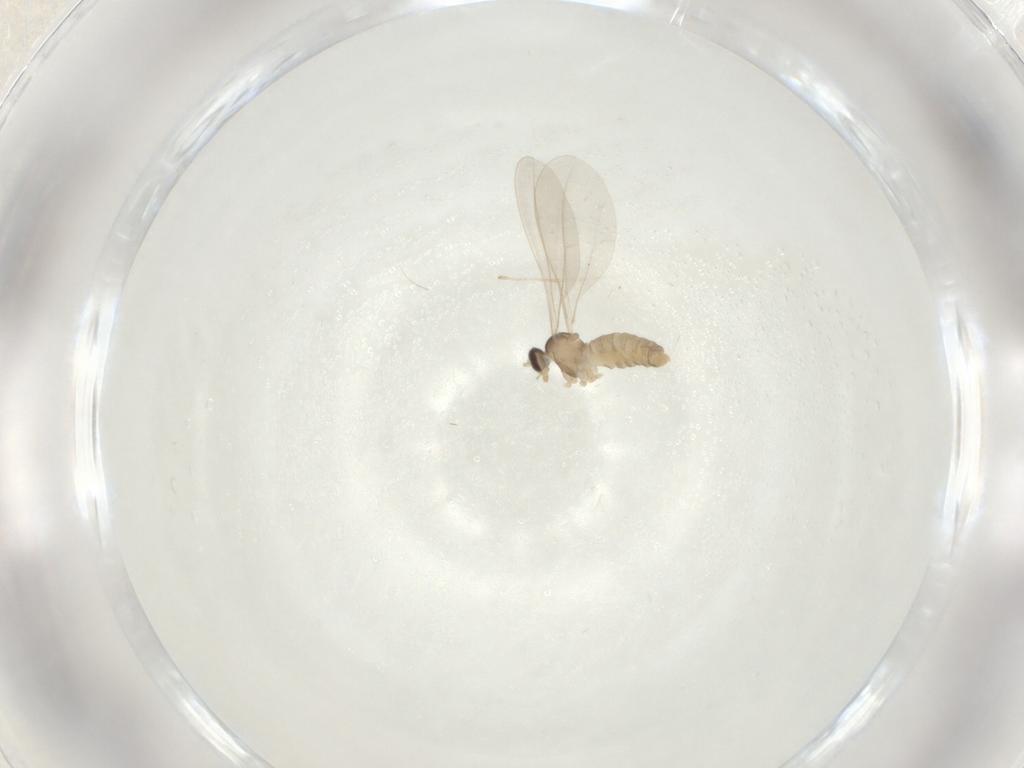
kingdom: Animalia
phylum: Arthropoda
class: Insecta
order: Diptera
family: Cecidomyiidae
